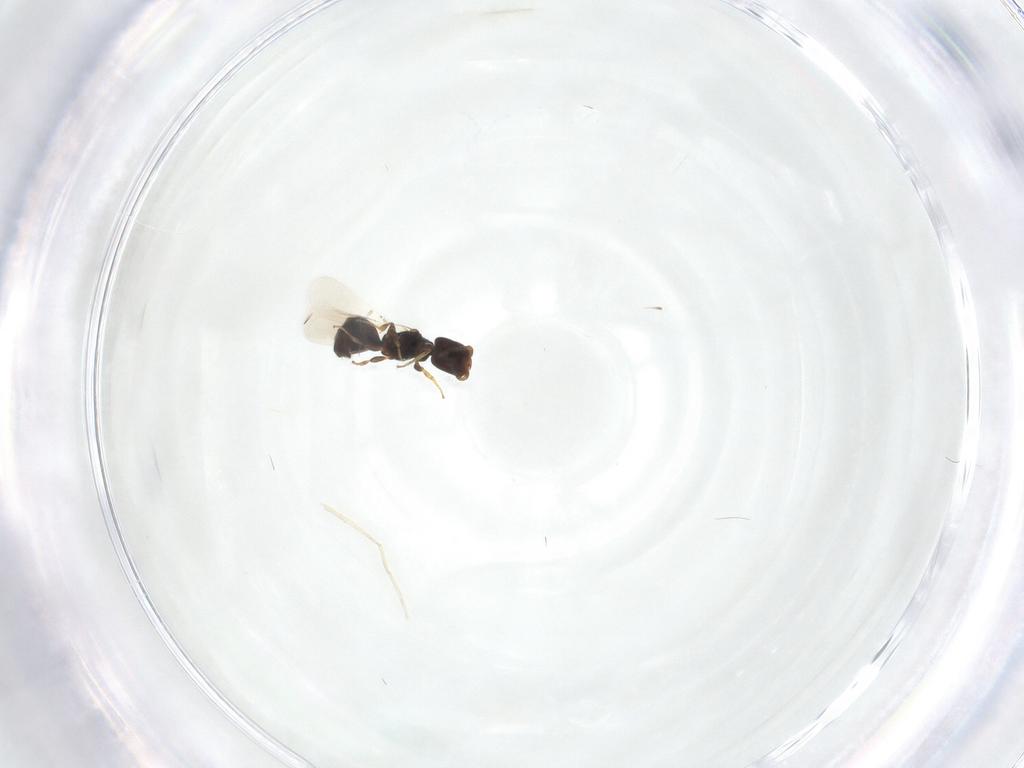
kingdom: Animalia
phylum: Arthropoda
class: Insecta
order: Hymenoptera
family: Bethylidae
